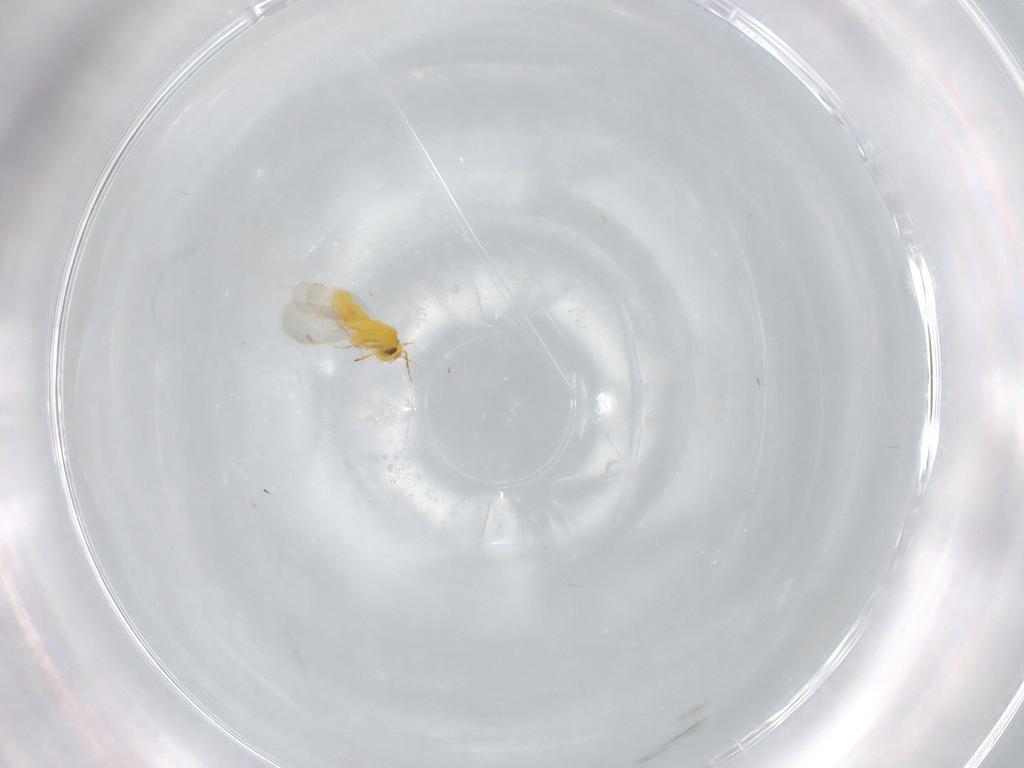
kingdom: Animalia
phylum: Arthropoda
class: Insecta
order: Hemiptera
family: Aleyrodidae
